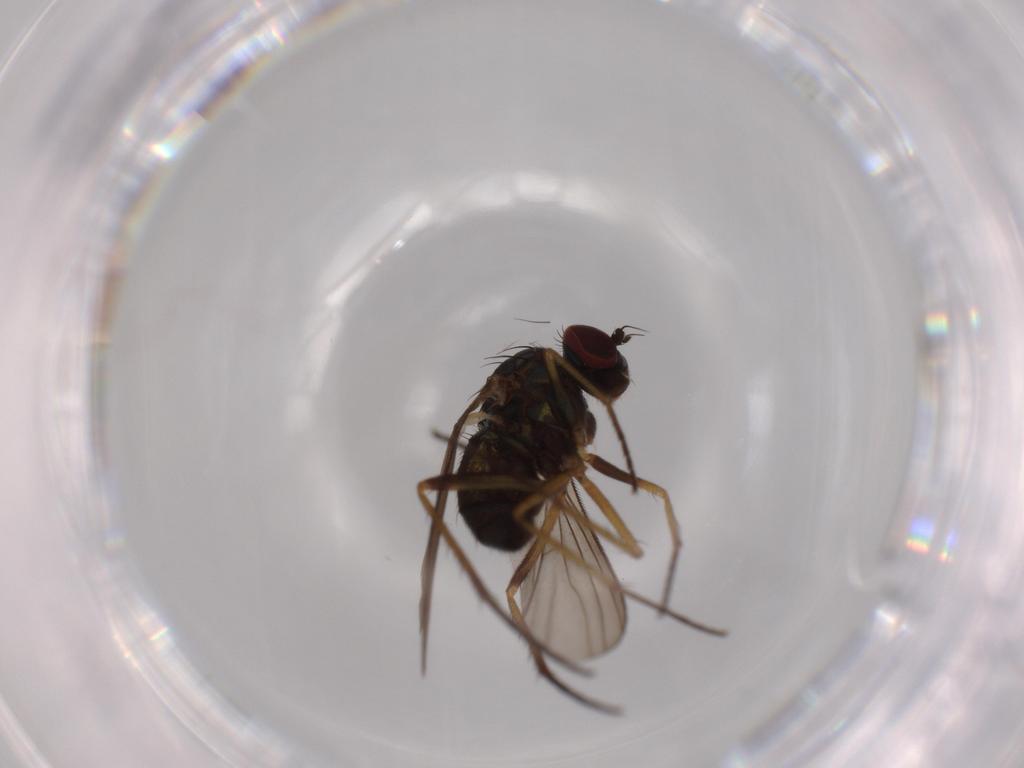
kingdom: Animalia
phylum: Arthropoda
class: Insecta
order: Diptera
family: Dolichopodidae
